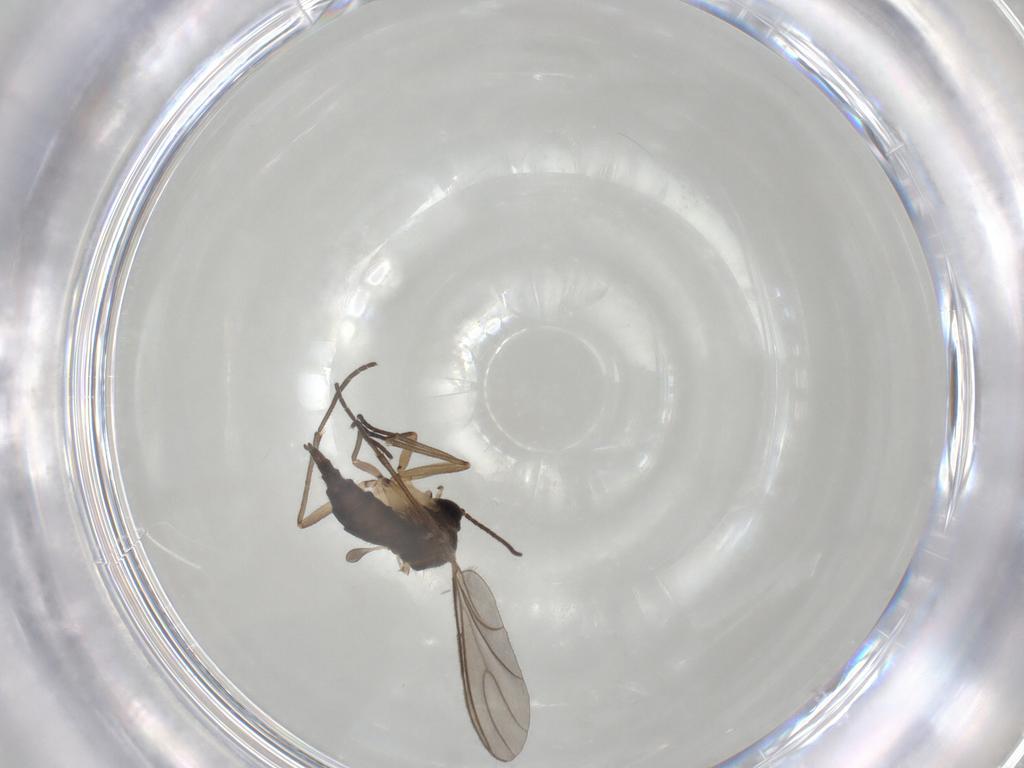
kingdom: Animalia
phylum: Arthropoda
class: Insecta
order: Diptera
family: Sciaridae
